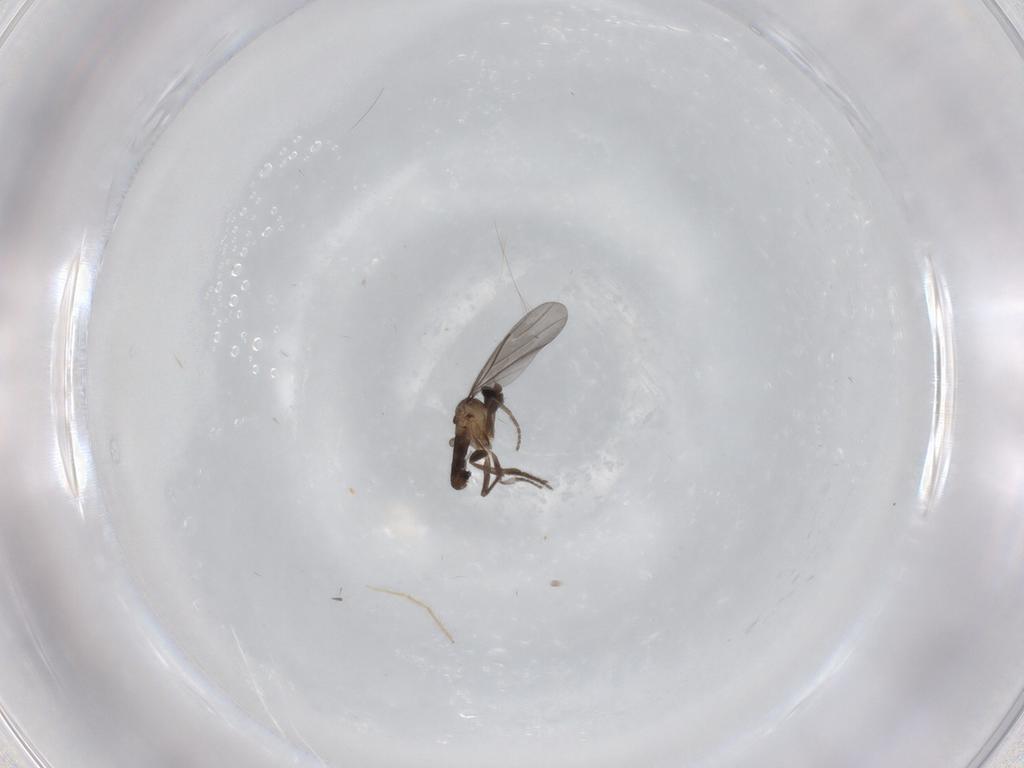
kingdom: Animalia
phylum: Arthropoda
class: Insecta
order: Diptera
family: Phoridae
